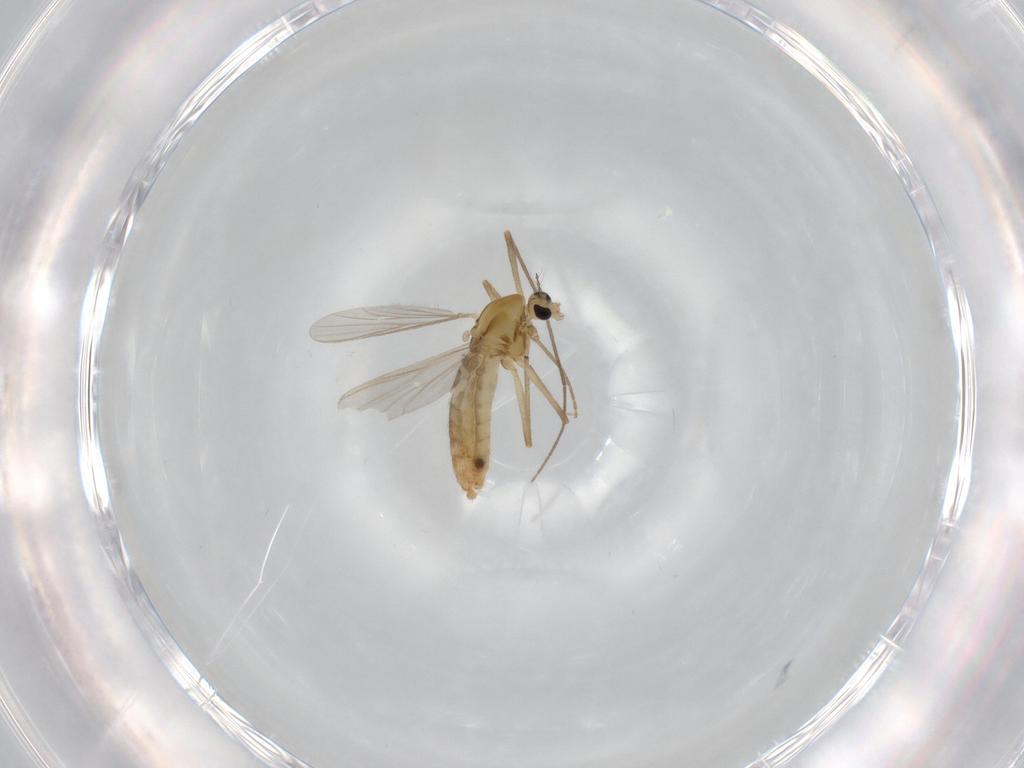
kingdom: Animalia
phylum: Arthropoda
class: Insecta
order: Diptera
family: Chironomidae
